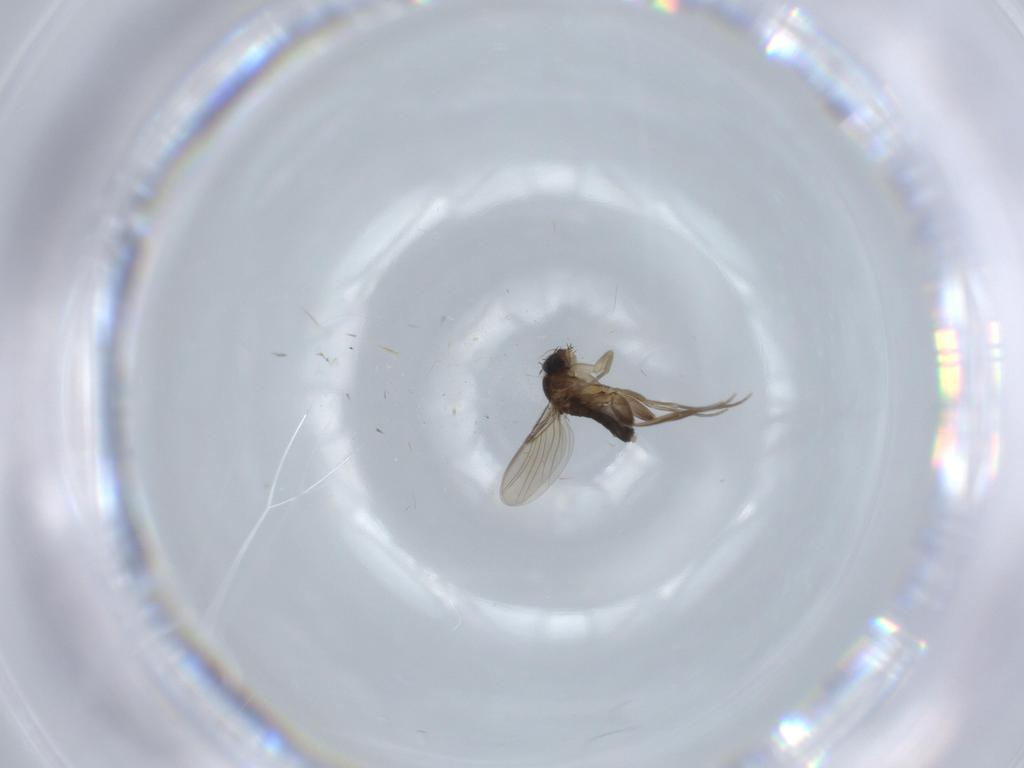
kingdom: Animalia
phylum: Arthropoda
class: Insecta
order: Diptera
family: Phoridae
